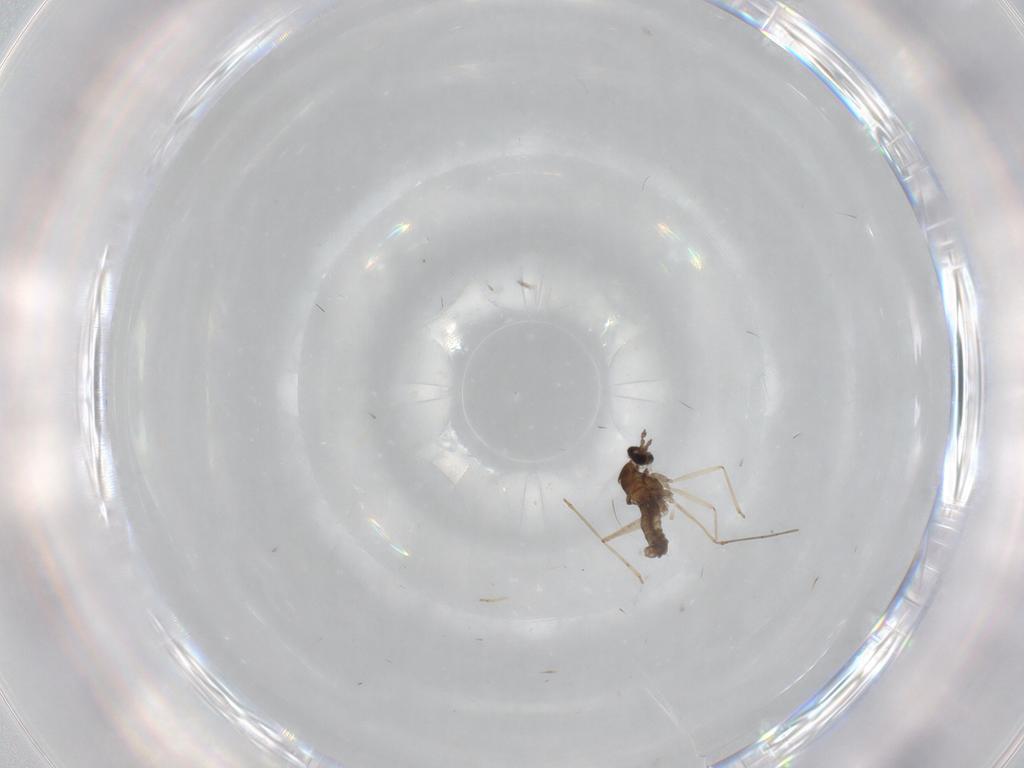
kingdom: Animalia
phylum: Arthropoda
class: Insecta
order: Diptera
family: Cecidomyiidae
